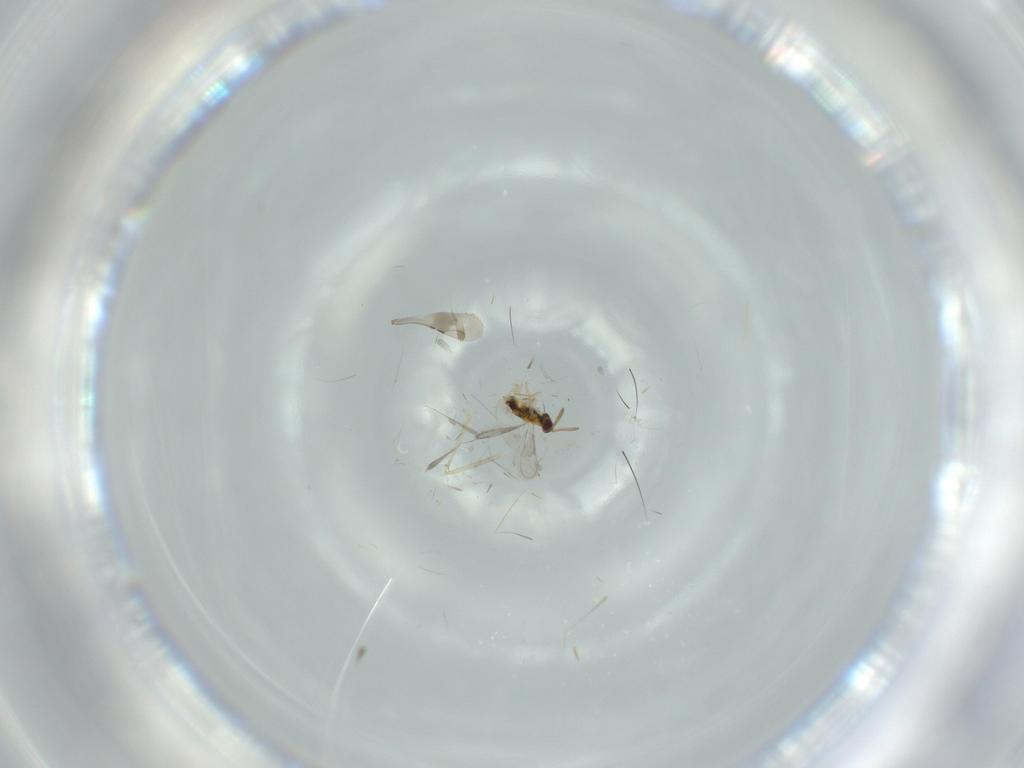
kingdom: Animalia
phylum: Arthropoda
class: Insecta
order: Hymenoptera
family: Aphelinidae
